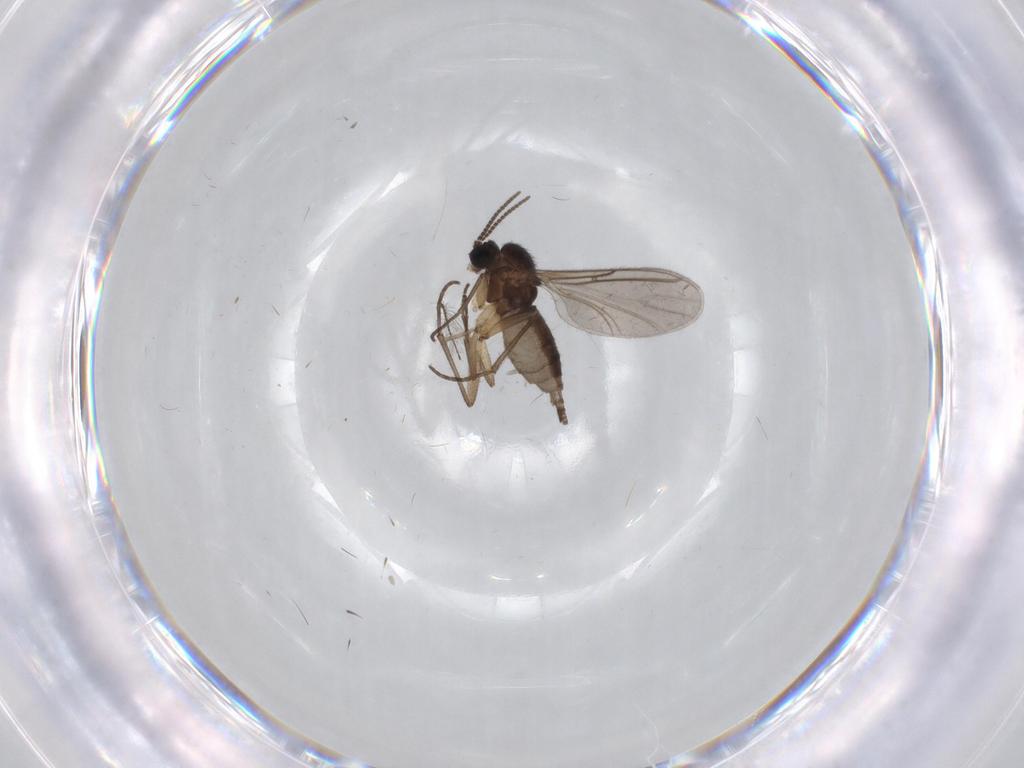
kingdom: Animalia
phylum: Arthropoda
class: Insecta
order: Diptera
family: Sciaridae
